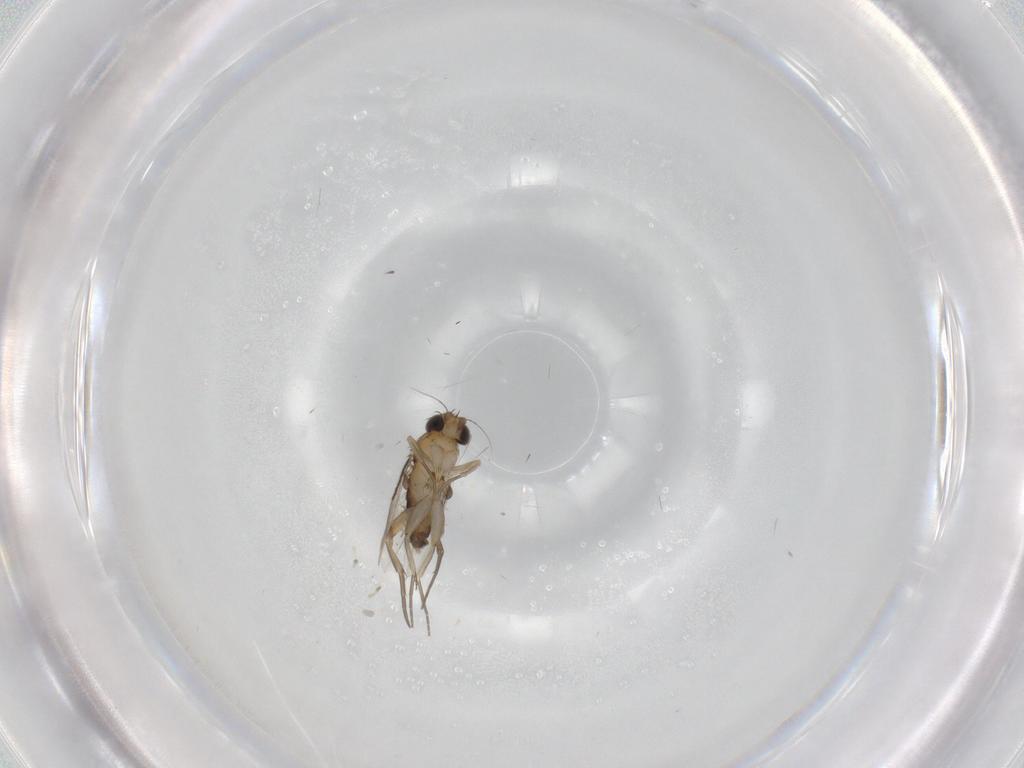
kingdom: Animalia
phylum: Arthropoda
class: Insecta
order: Diptera
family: Phoridae
